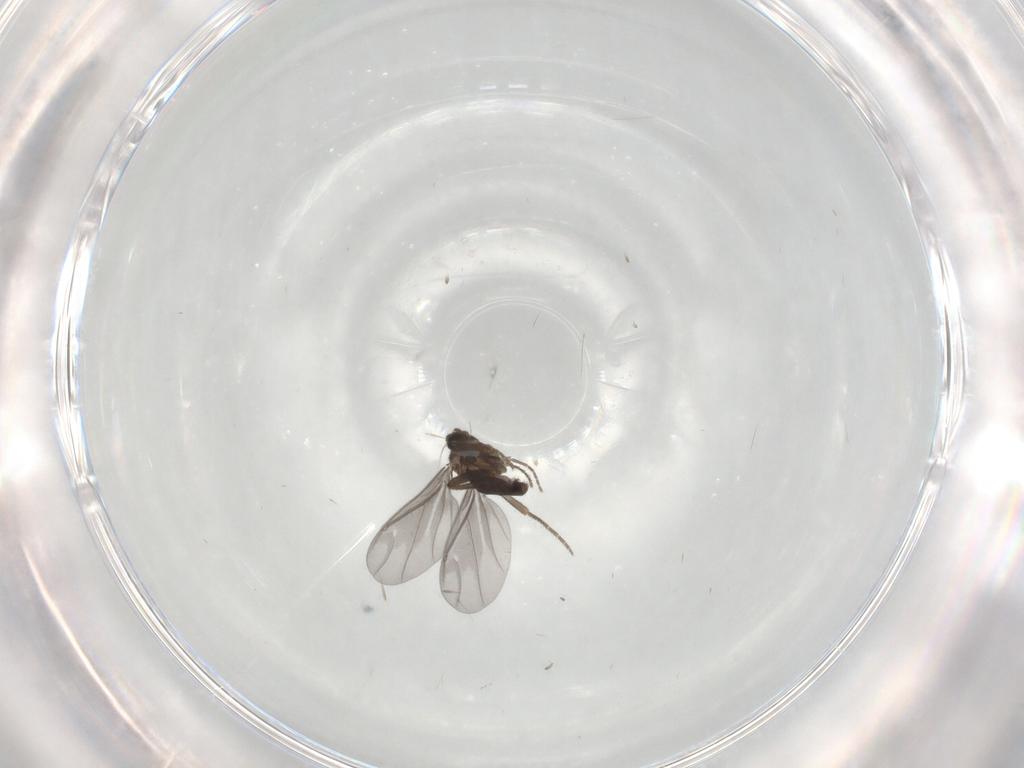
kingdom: Animalia
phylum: Arthropoda
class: Insecta
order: Diptera
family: Phoridae
